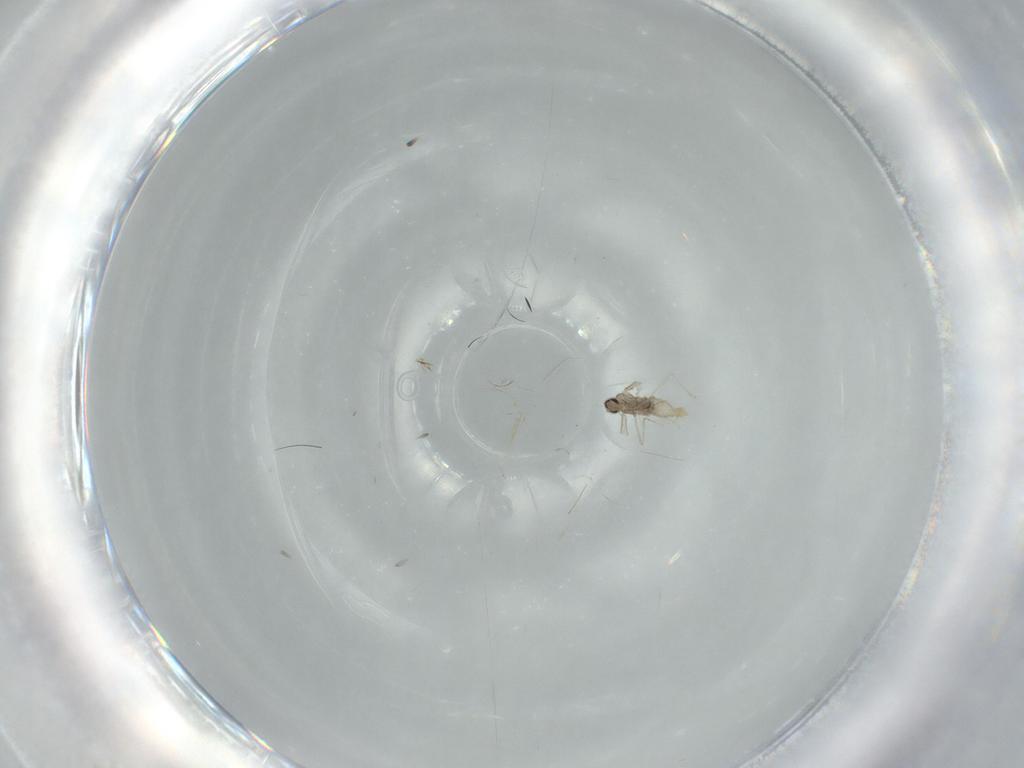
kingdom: Animalia
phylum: Arthropoda
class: Insecta
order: Diptera
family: Cecidomyiidae
